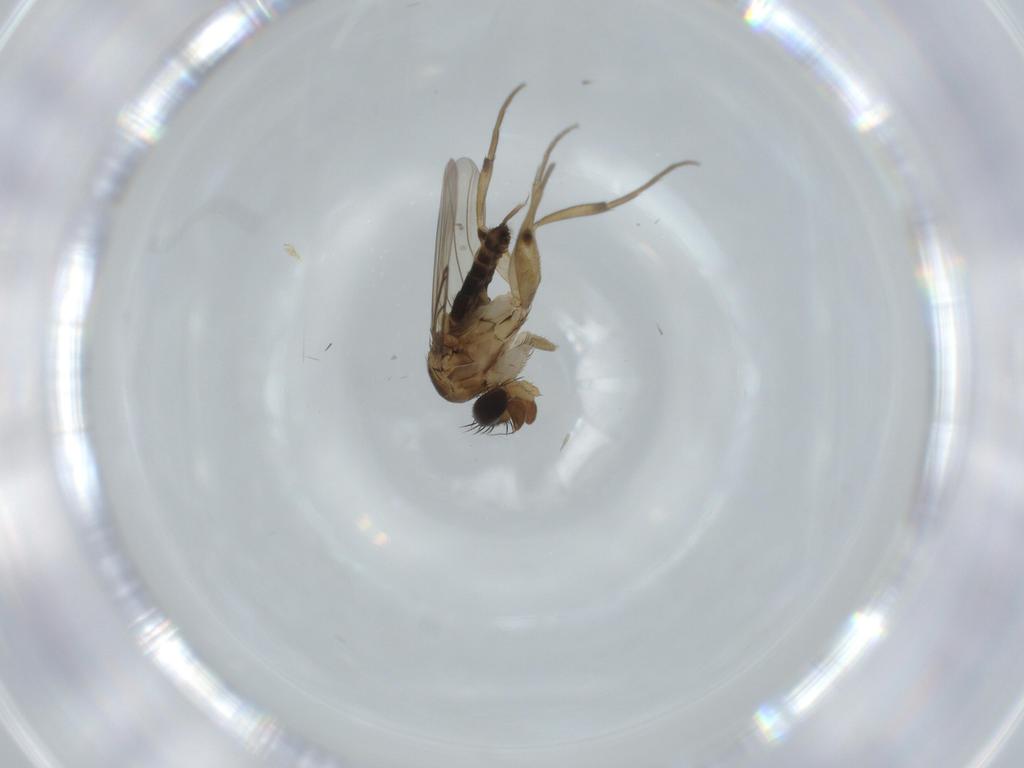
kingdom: Animalia
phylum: Arthropoda
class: Insecta
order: Diptera
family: Phoridae
